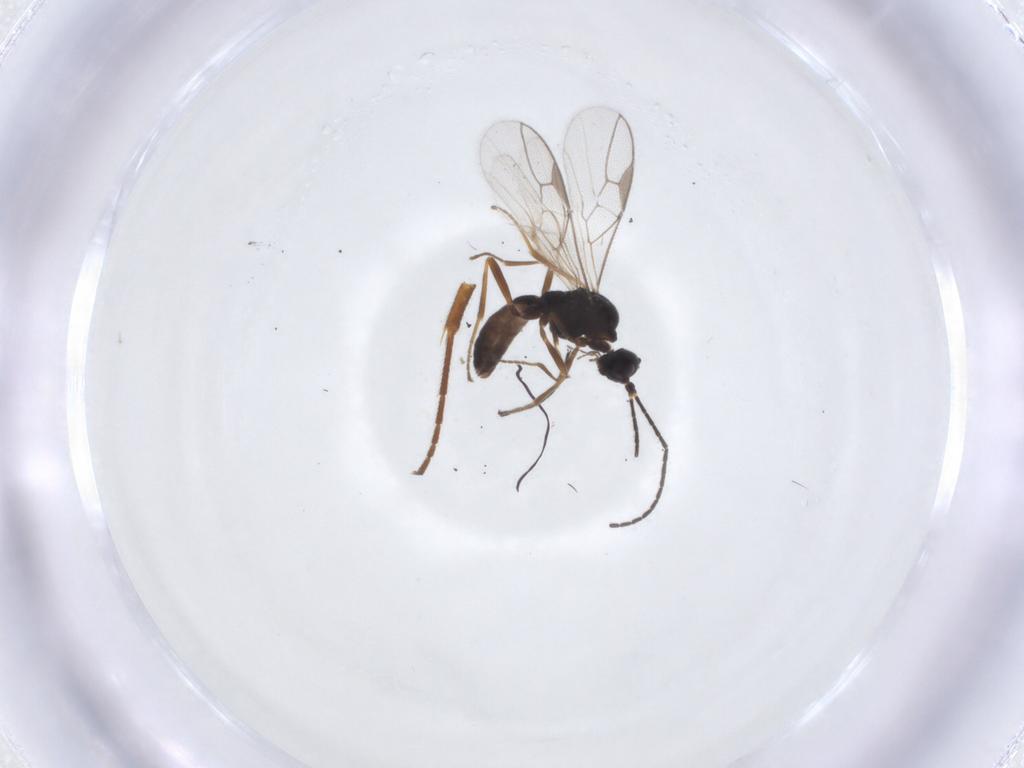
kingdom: Animalia
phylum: Arthropoda
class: Insecta
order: Hymenoptera
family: Braconidae
